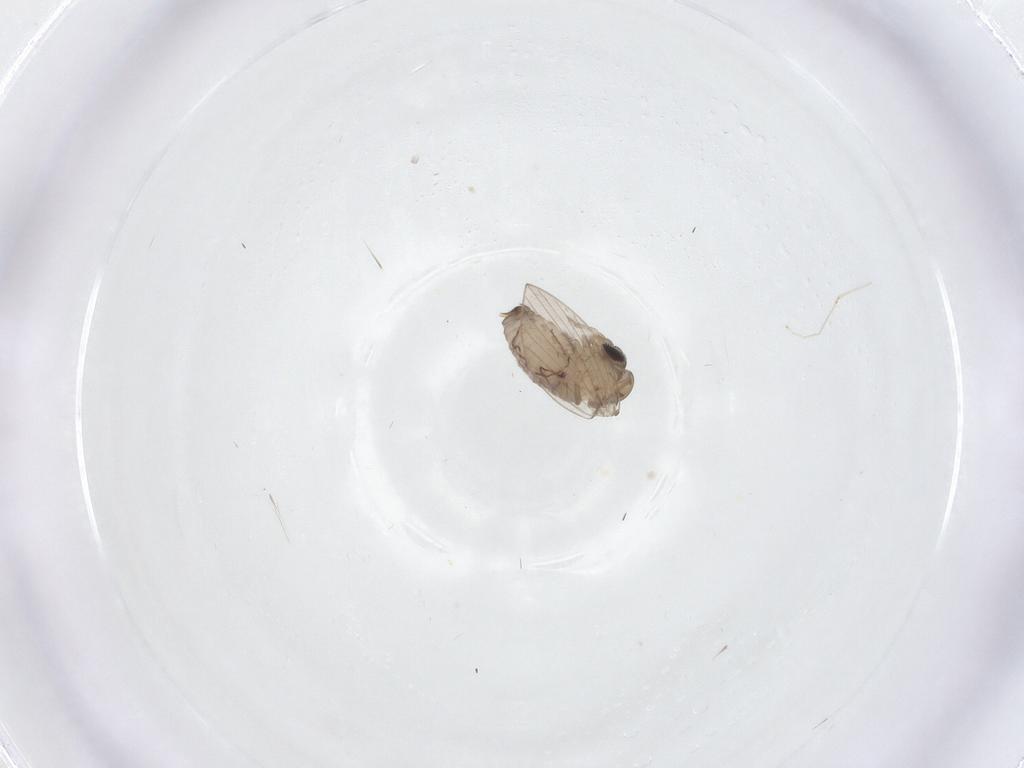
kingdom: Animalia
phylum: Arthropoda
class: Insecta
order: Diptera
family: Psychodidae
